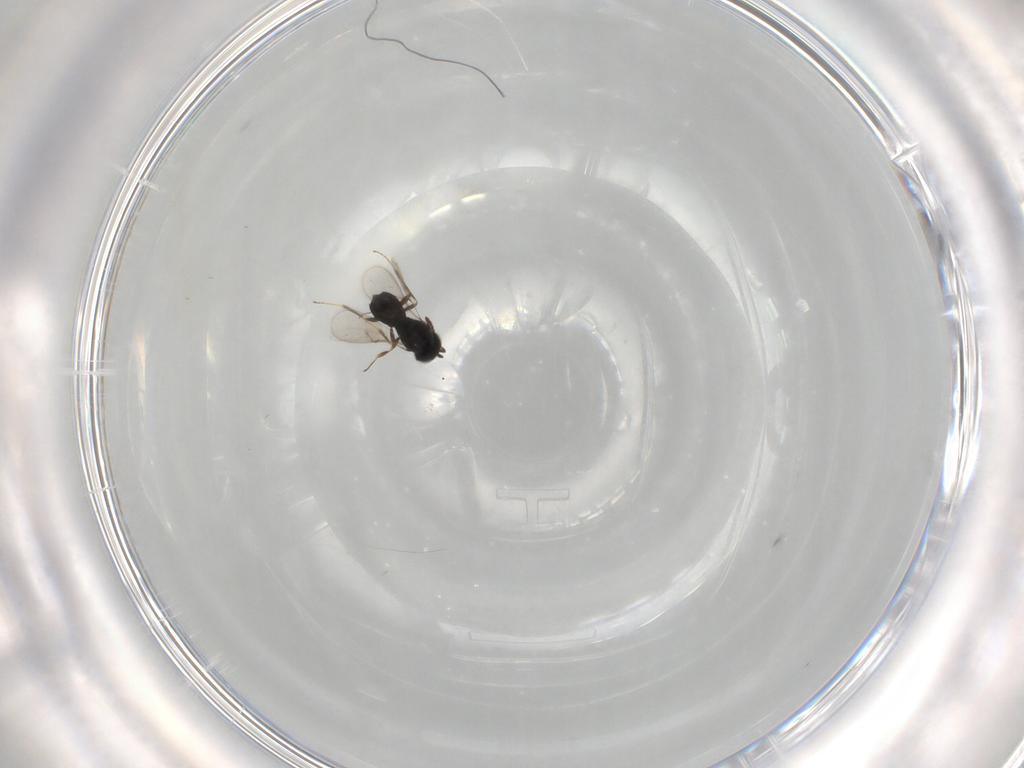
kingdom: Animalia
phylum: Arthropoda
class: Insecta
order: Hymenoptera
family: Scelionidae
